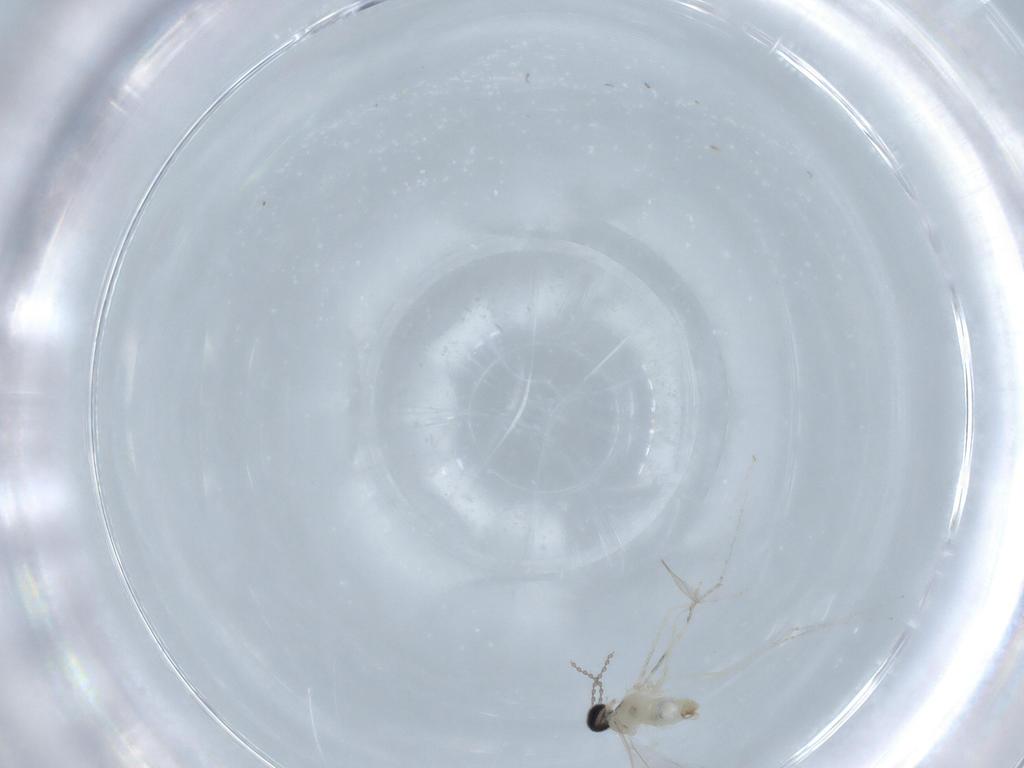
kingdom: Animalia
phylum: Arthropoda
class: Insecta
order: Diptera
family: Cecidomyiidae
